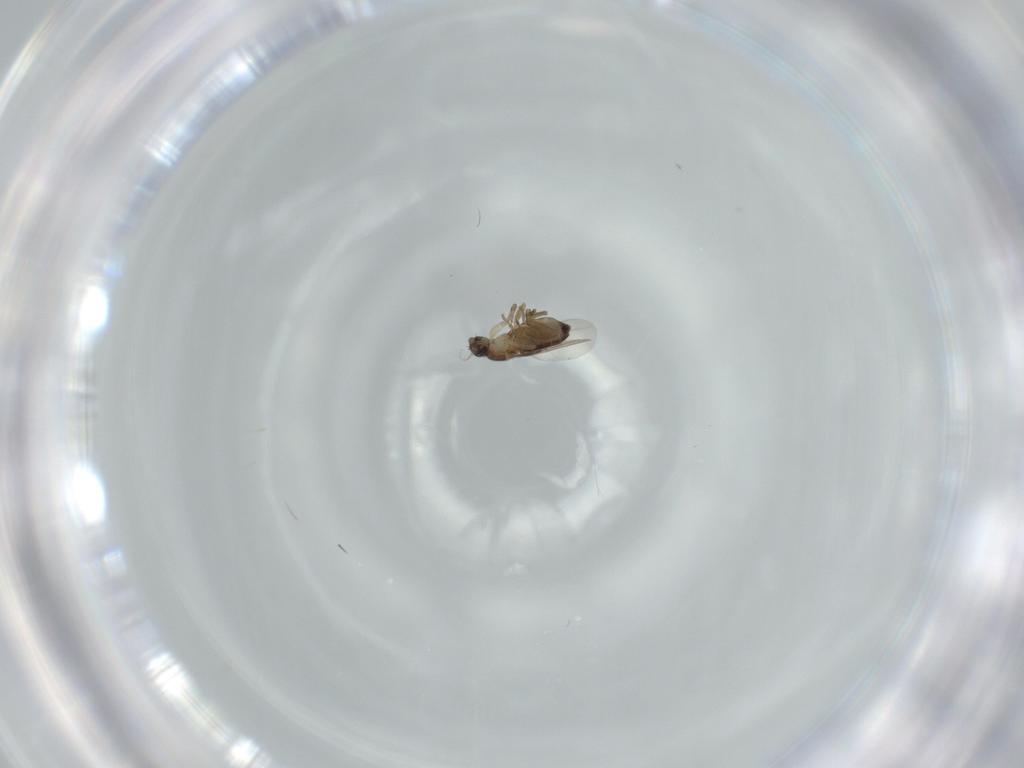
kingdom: Animalia
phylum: Arthropoda
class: Insecta
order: Diptera
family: Phoridae
